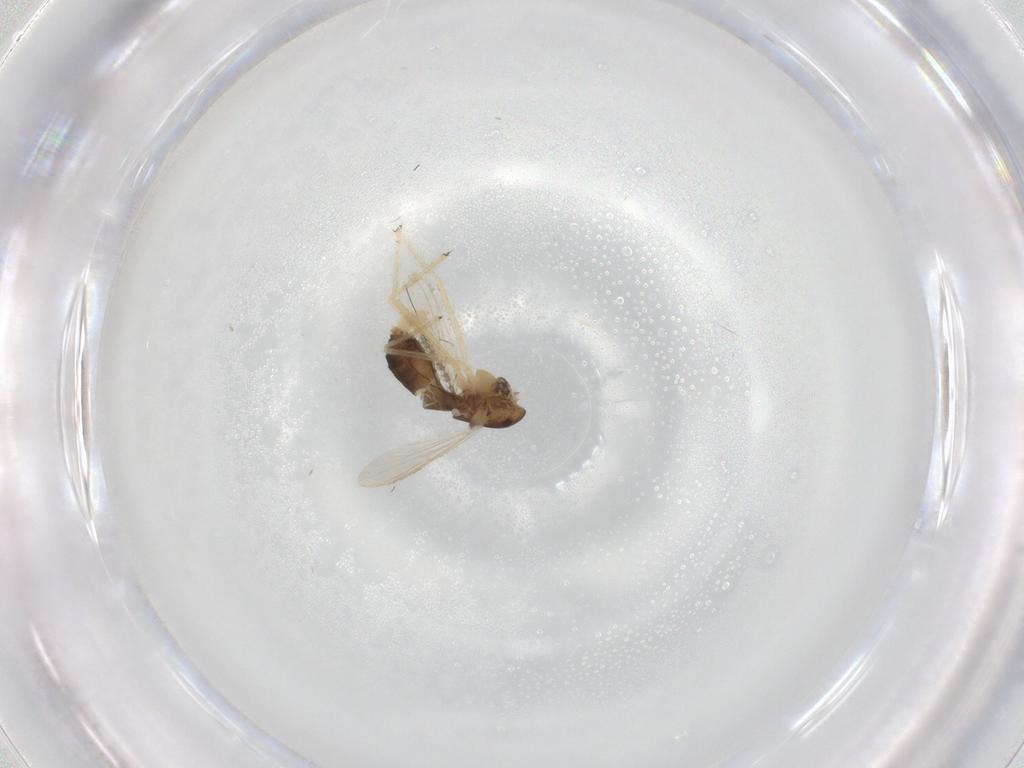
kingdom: Animalia
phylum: Arthropoda
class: Insecta
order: Diptera
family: Chironomidae
